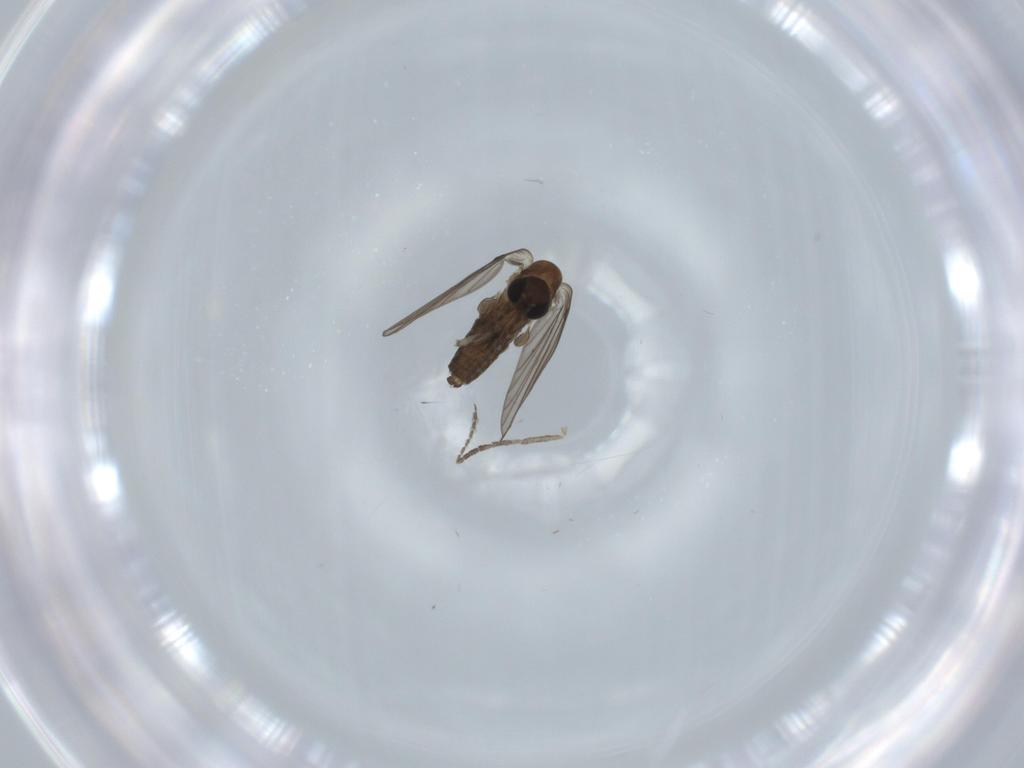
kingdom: Animalia
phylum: Arthropoda
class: Insecta
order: Diptera
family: Psychodidae
